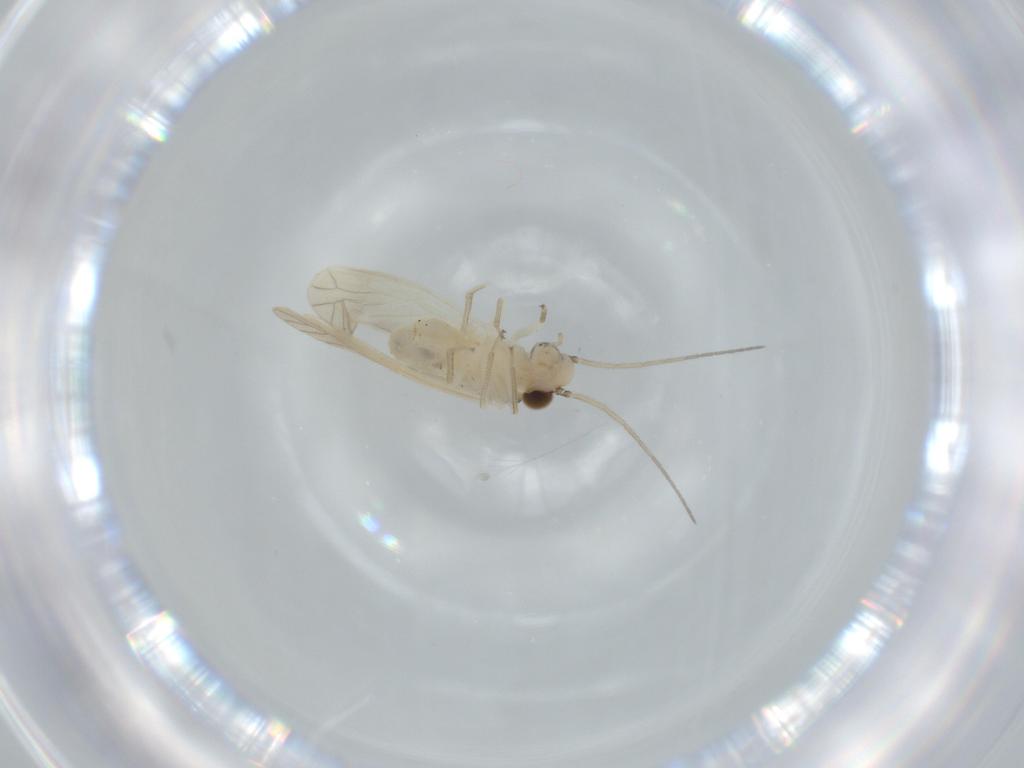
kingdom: Animalia
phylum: Arthropoda
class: Insecta
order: Psocodea
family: Caeciliusidae
